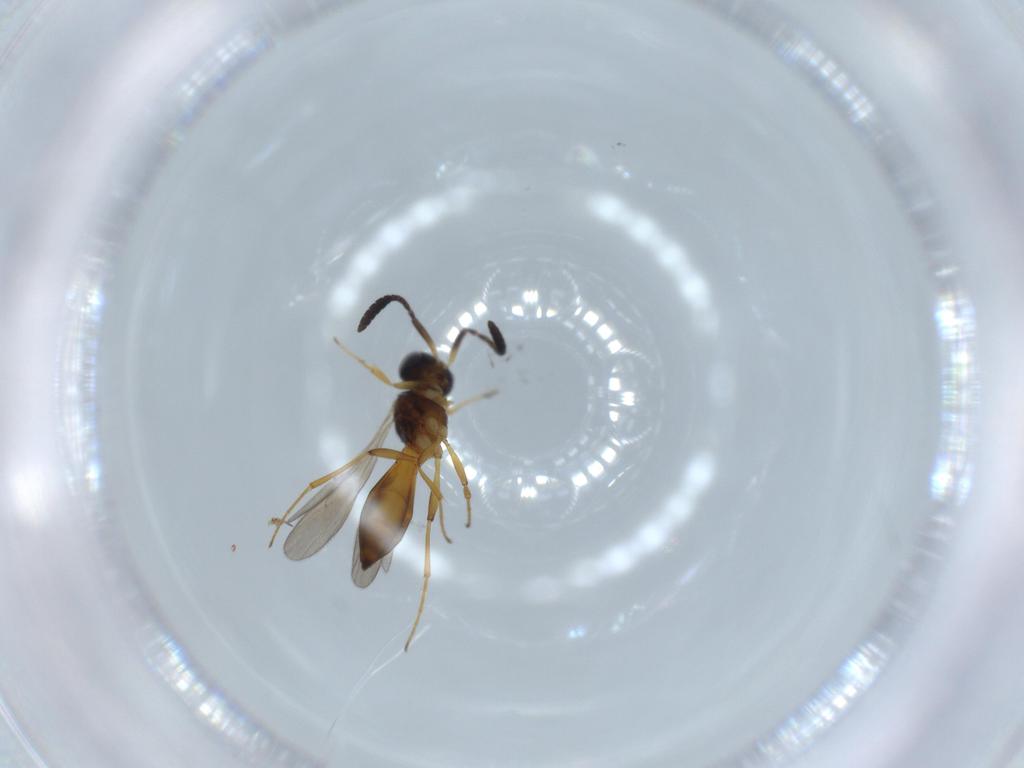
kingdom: Animalia
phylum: Arthropoda
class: Insecta
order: Hymenoptera
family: Scelionidae
